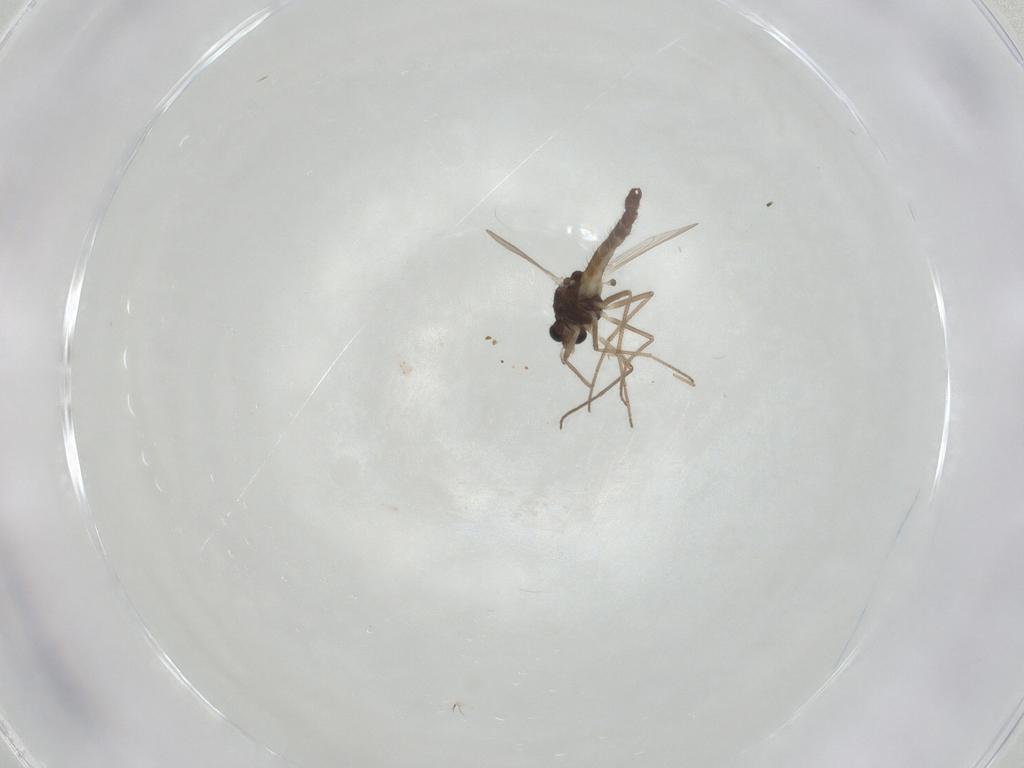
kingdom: Animalia
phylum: Arthropoda
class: Insecta
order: Diptera
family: Chironomidae
